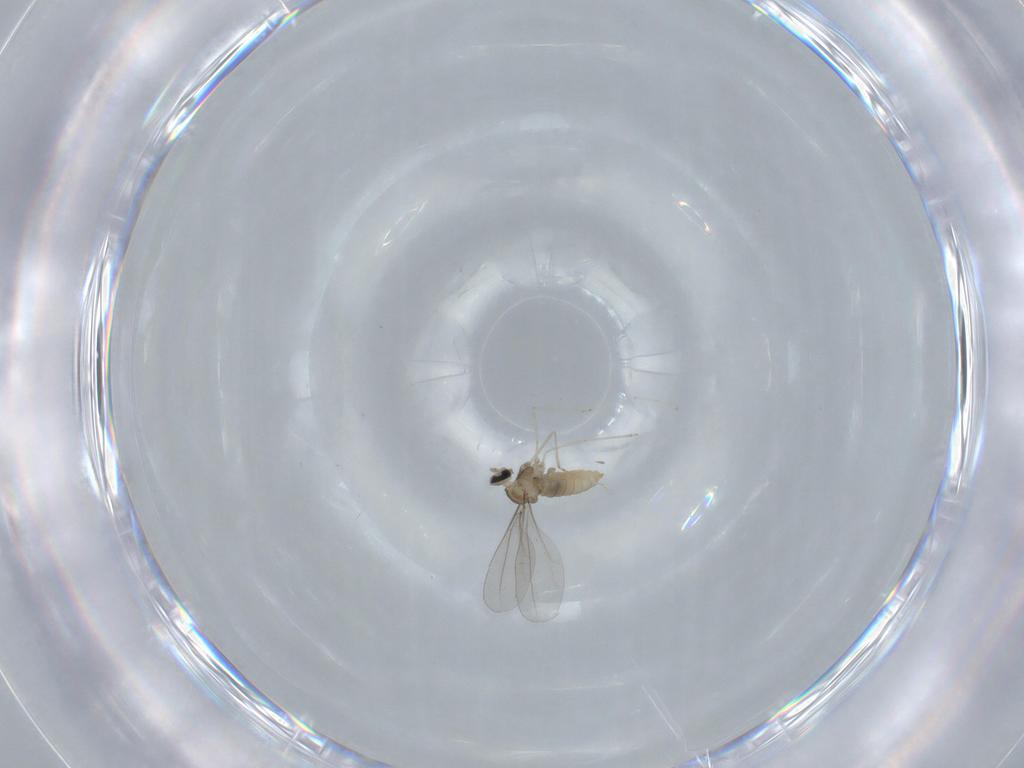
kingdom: Animalia
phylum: Arthropoda
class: Insecta
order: Diptera
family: Cecidomyiidae
